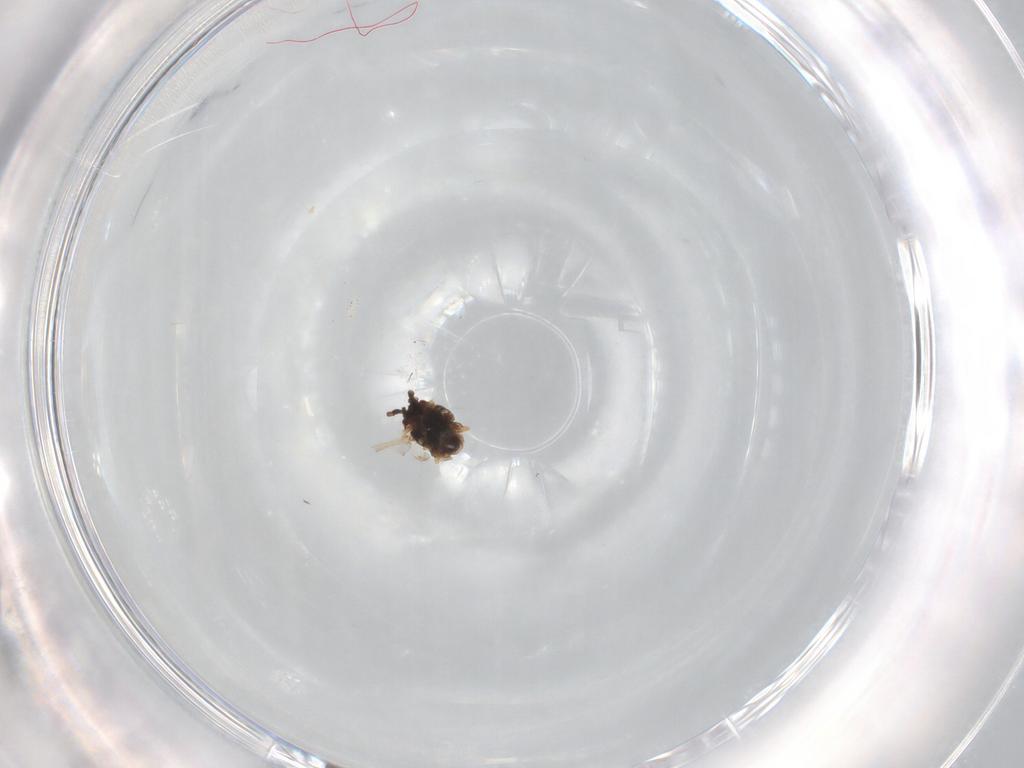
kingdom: Animalia
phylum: Arthropoda
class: Insecta
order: Hemiptera
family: Aphididae
